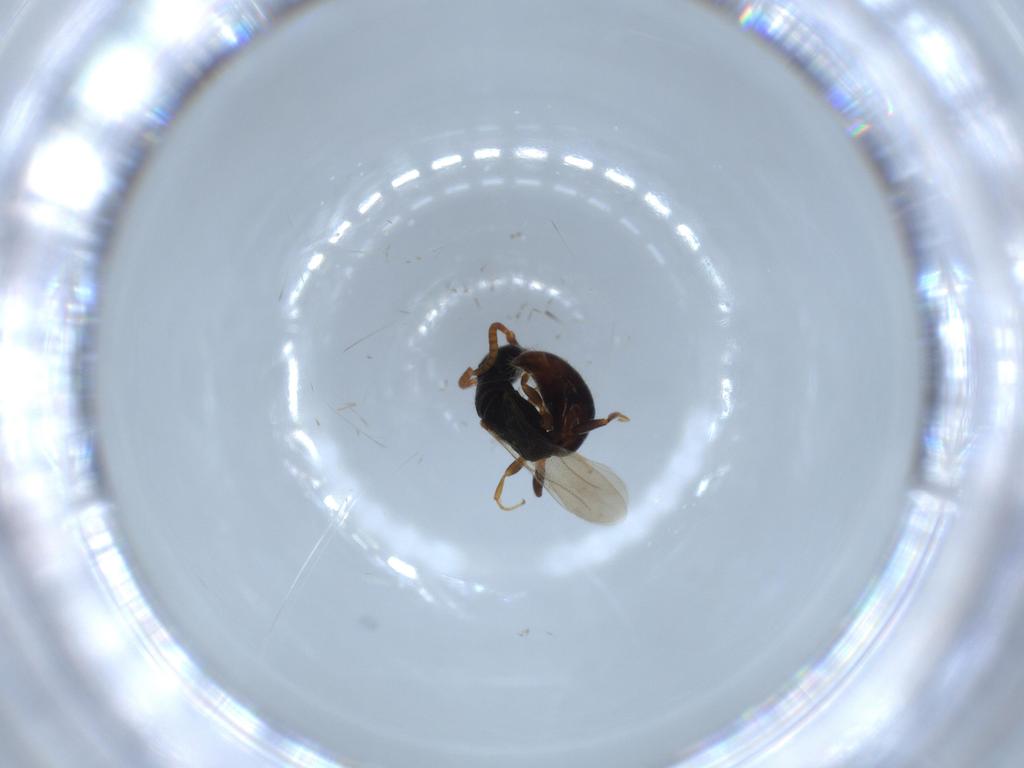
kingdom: Animalia
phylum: Arthropoda
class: Insecta
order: Hymenoptera
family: Bethylidae
